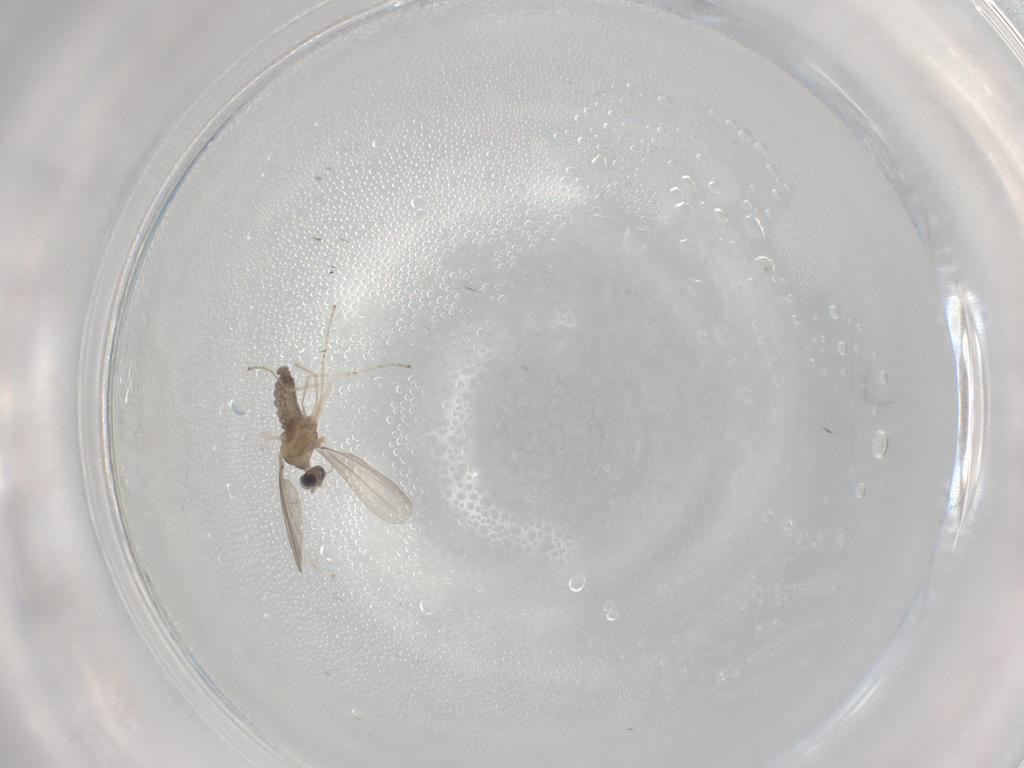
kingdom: Animalia
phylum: Arthropoda
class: Insecta
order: Diptera
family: Cecidomyiidae
